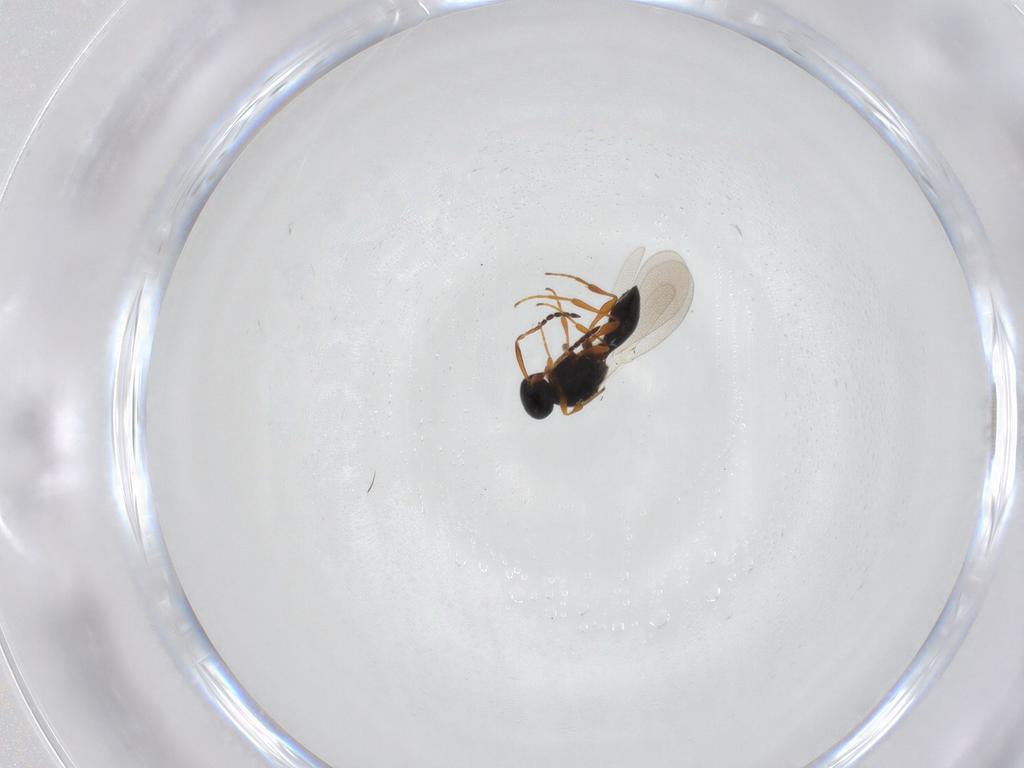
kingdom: Animalia
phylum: Arthropoda
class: Insecta
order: Hymenoptera
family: Platygastridae
